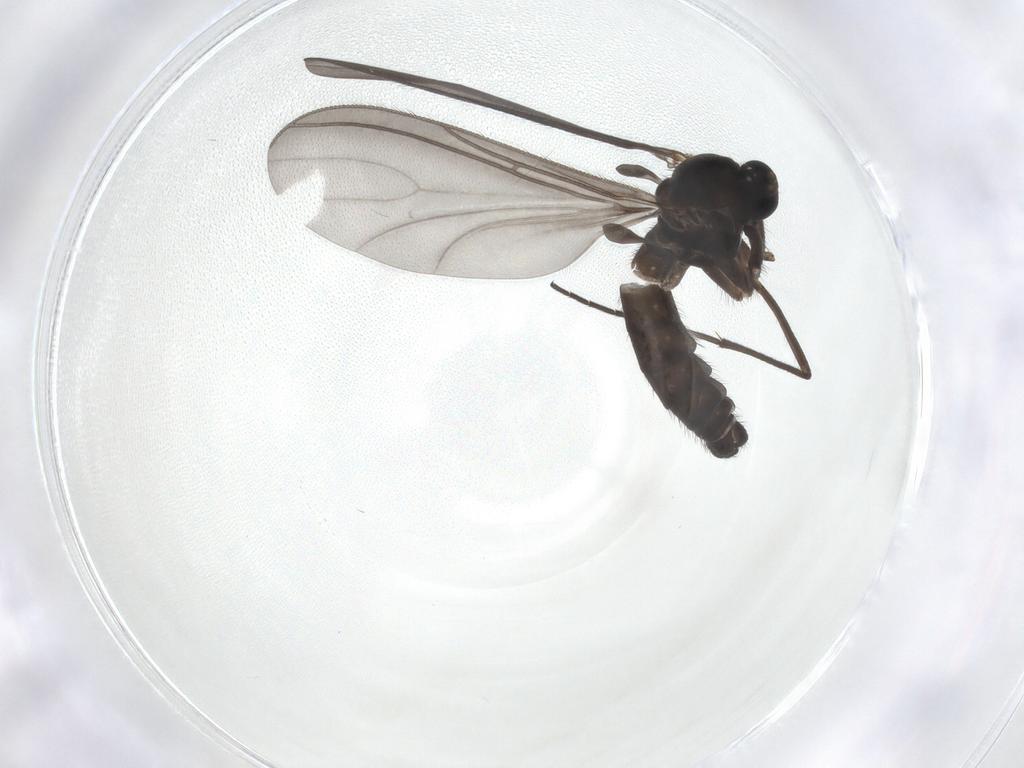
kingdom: Animalia
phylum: Arthropoda
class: Insecta
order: Diptera
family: Sciaridae
